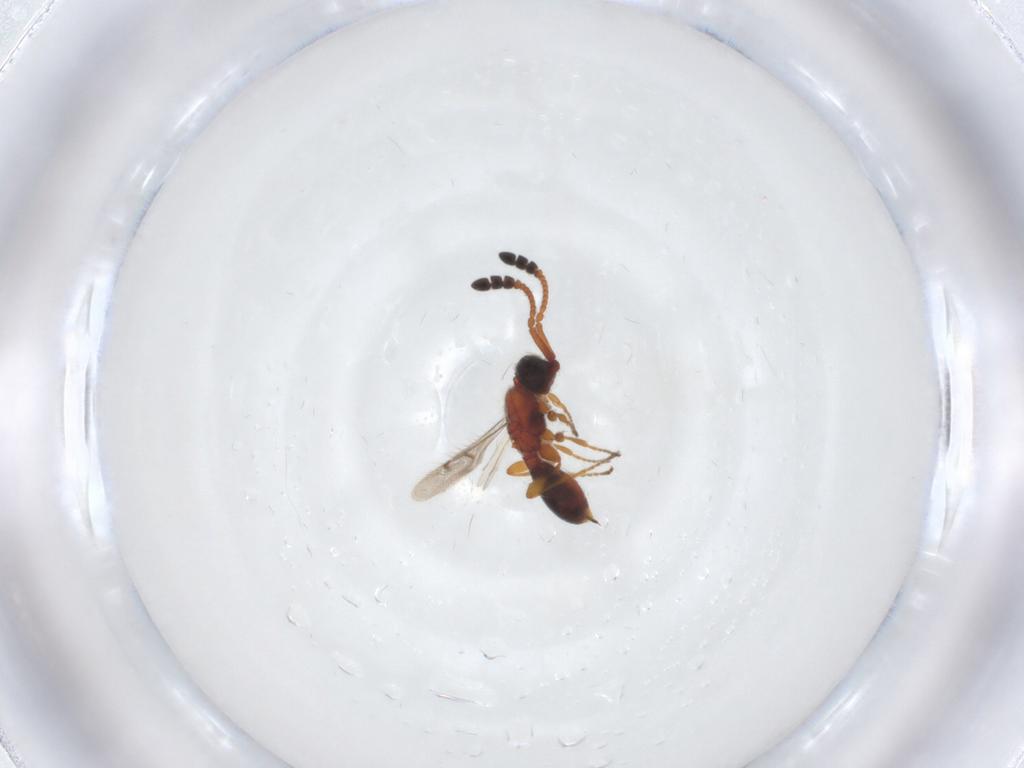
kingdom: Animalia
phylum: Arthropoda
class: Insecta
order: Hymenoptera
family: Diapriidae
